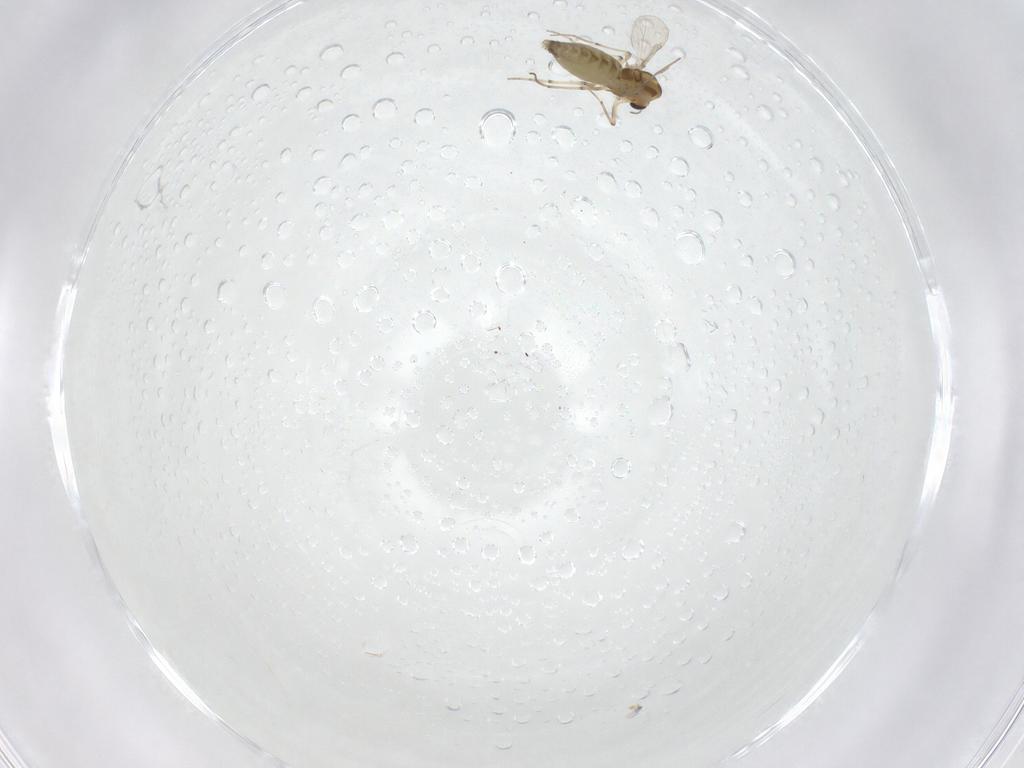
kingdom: Animalia
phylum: Arthropoda
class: Insecta
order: Diptera
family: Chironomidae
